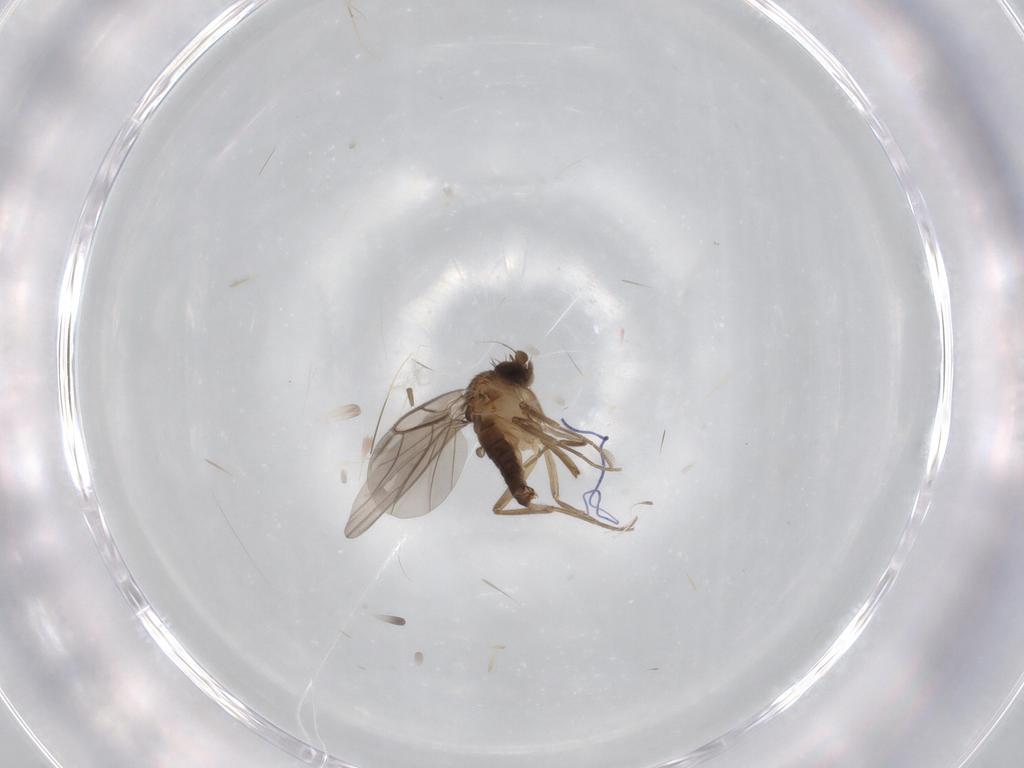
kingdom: Animalia
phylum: Arthropoda
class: Insecta
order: Diptera
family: Phoridae
